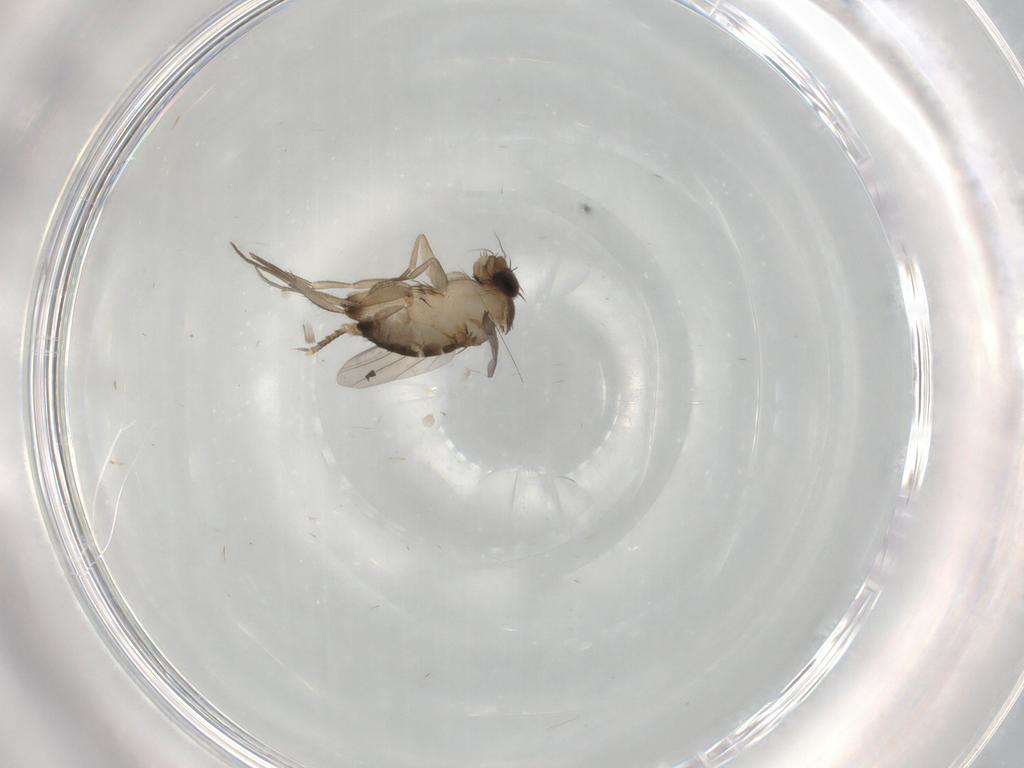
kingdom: Animalia
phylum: Arthropoda
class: Insecta
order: Diptera
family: Phoridae
